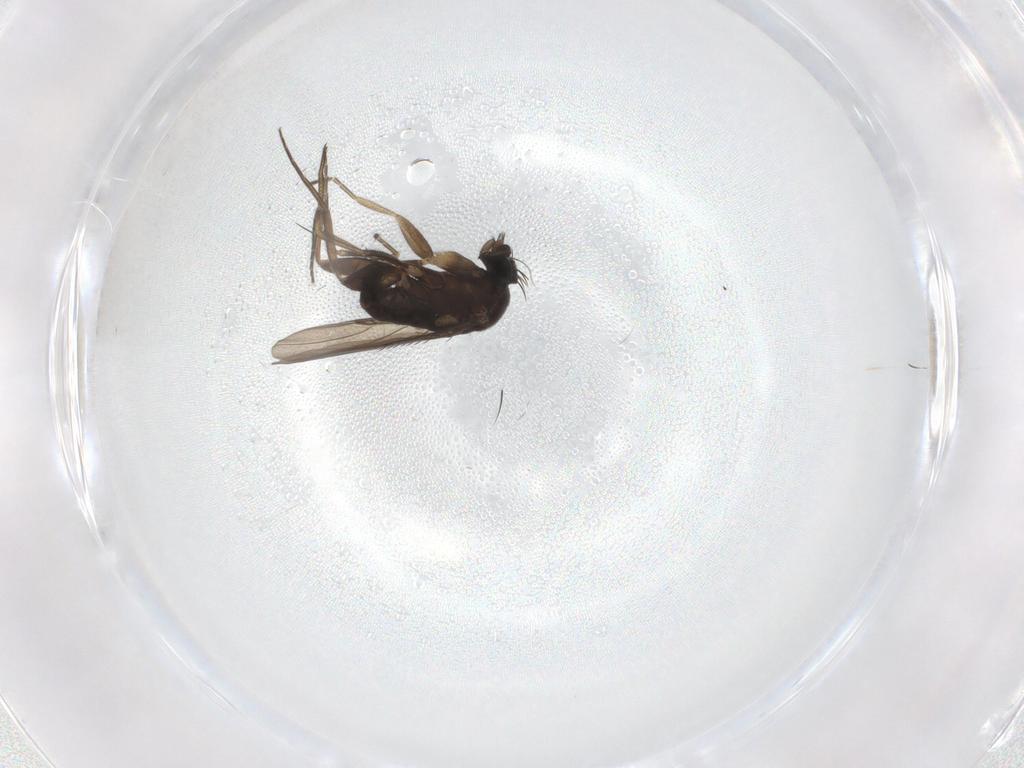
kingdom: Animalia
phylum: Arthropoda
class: Insecta
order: Diptera
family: Phoridae
